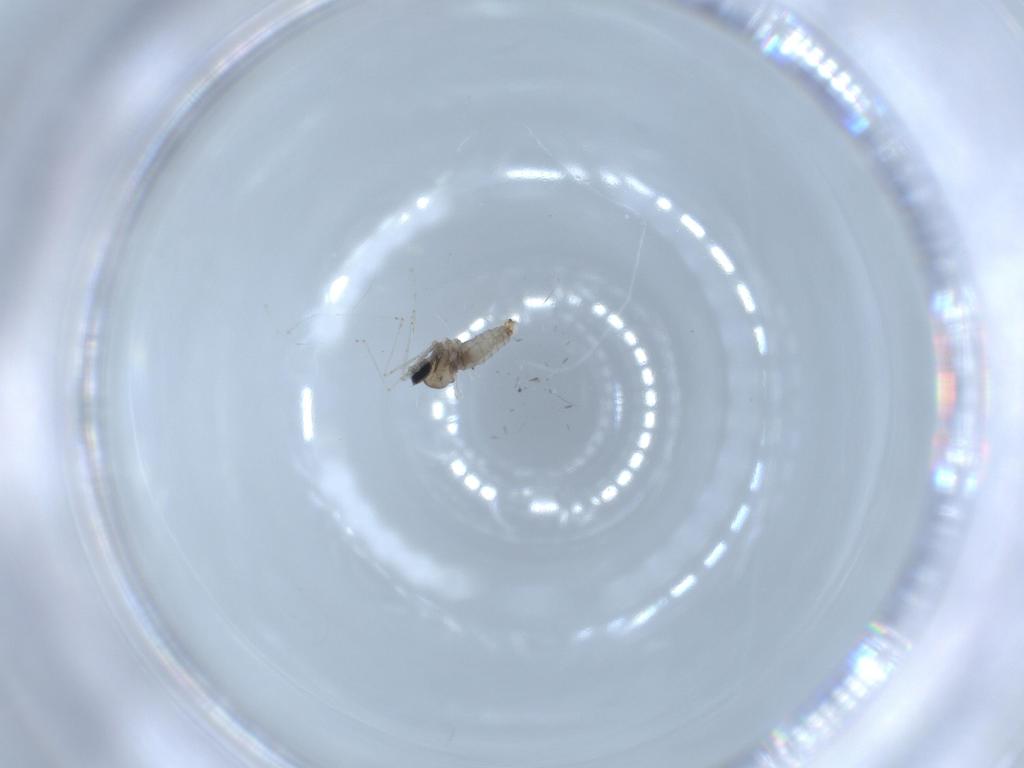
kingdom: Animalia
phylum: Arthropoda
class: Insecta
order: Diptera
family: Cecidomyiidae
